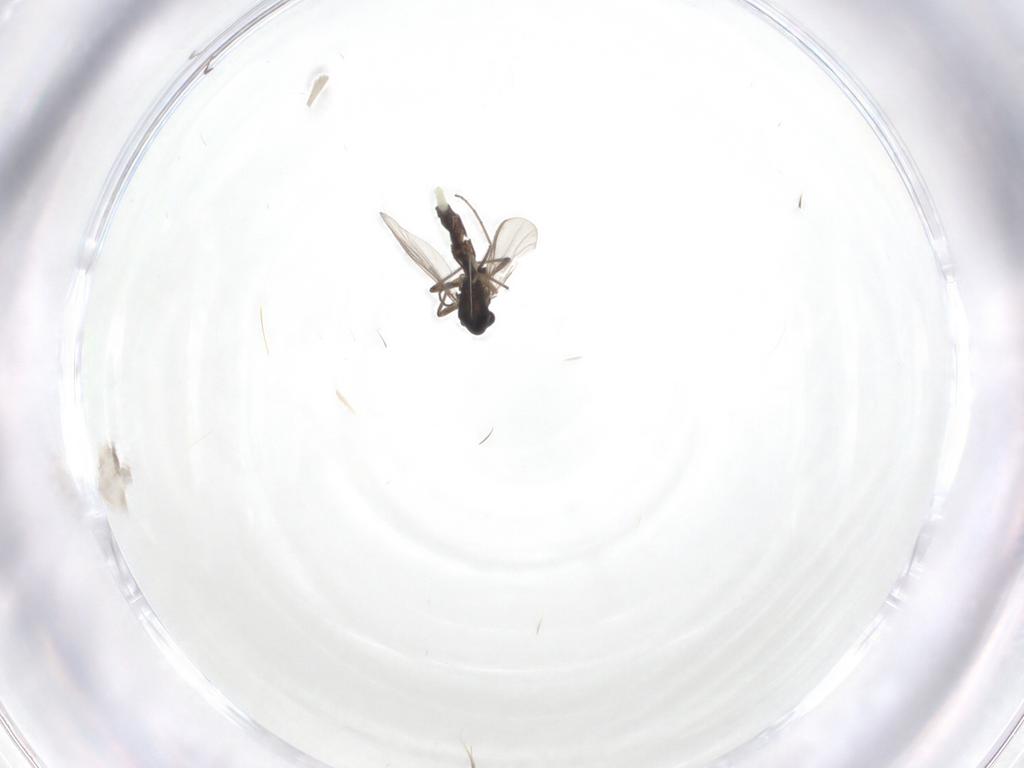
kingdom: Animalia
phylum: Arthropoda
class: Insecta
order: Diptera
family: Chironomidae
